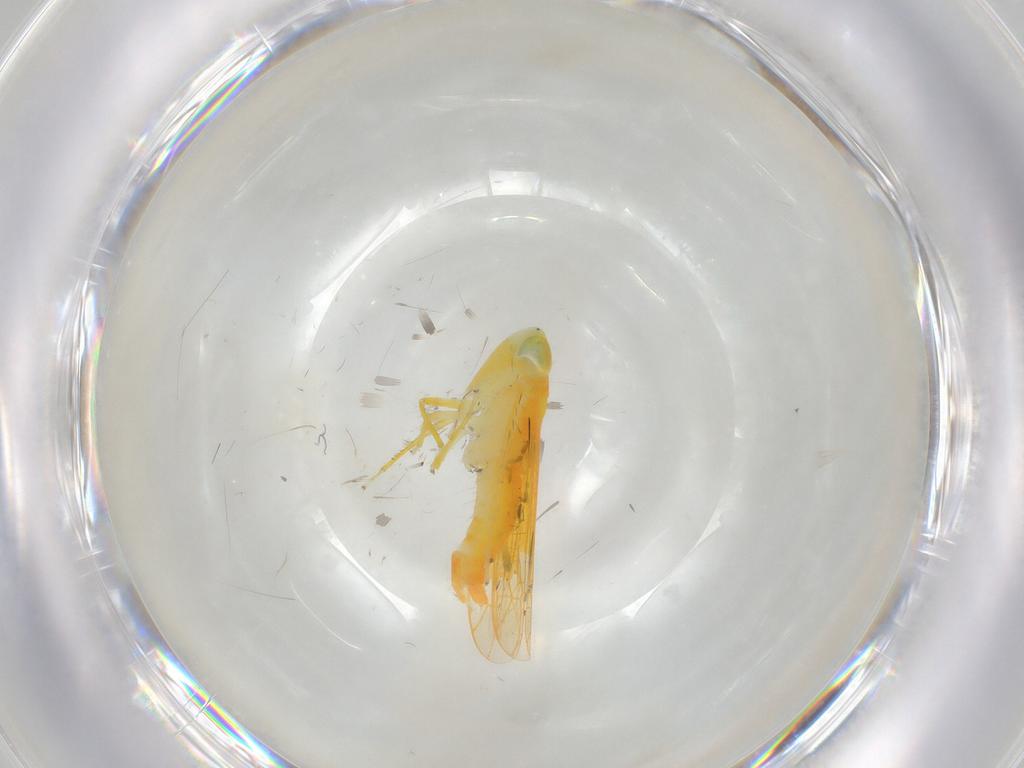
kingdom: Animalia
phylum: Arthropoda
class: Insecta
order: Hemiptera
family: Cicadellidae
